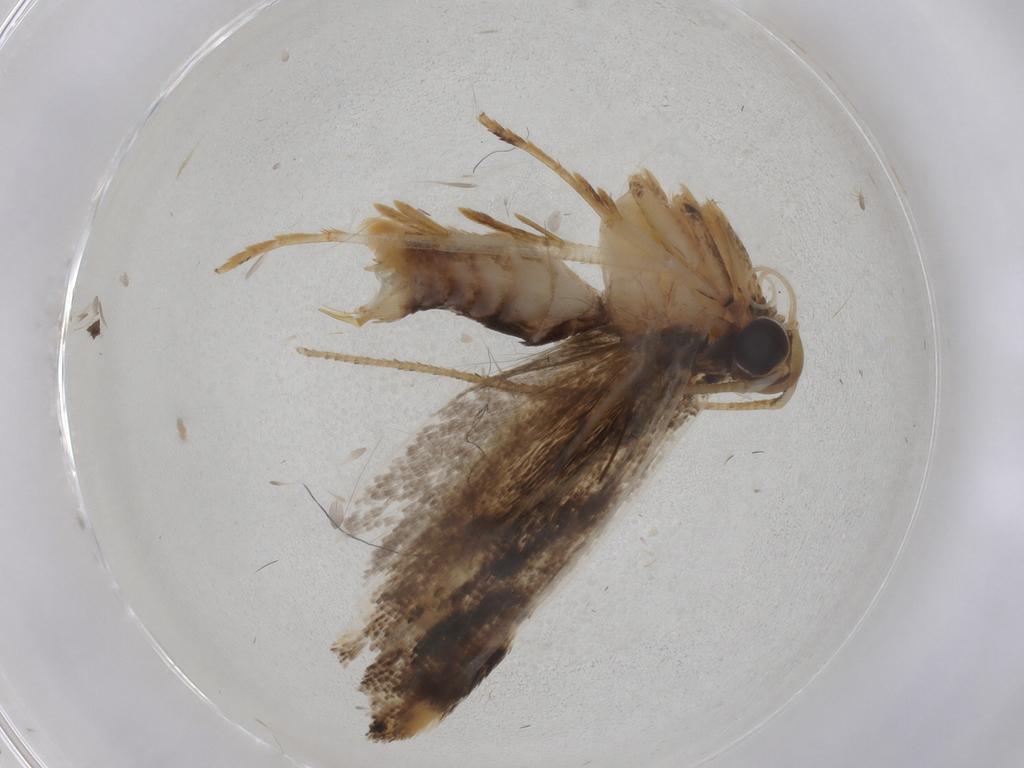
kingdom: Animalia
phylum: Arthropoda
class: Insecta
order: Lepidoptera
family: Gelechiidae
